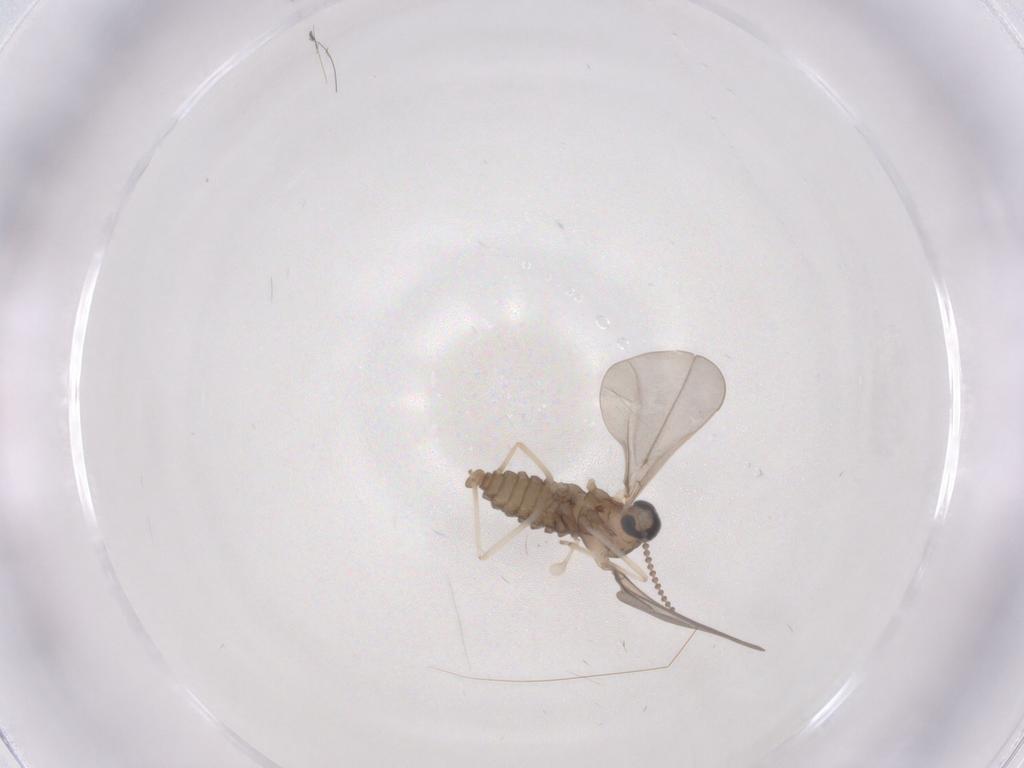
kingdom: Animalia
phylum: Arthropoda
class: Insecta
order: Diptera
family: Cecidomyiidae
